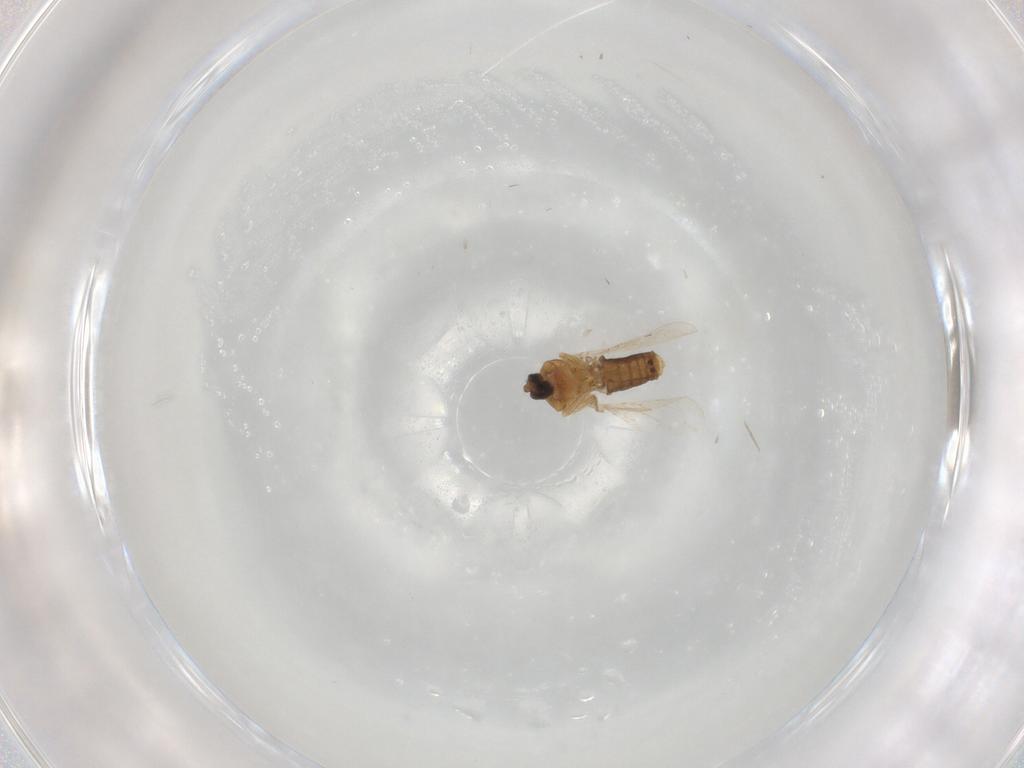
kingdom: Animalia
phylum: Arthropoda
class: Insecta
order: Diptera
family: Ceratopogonidae
